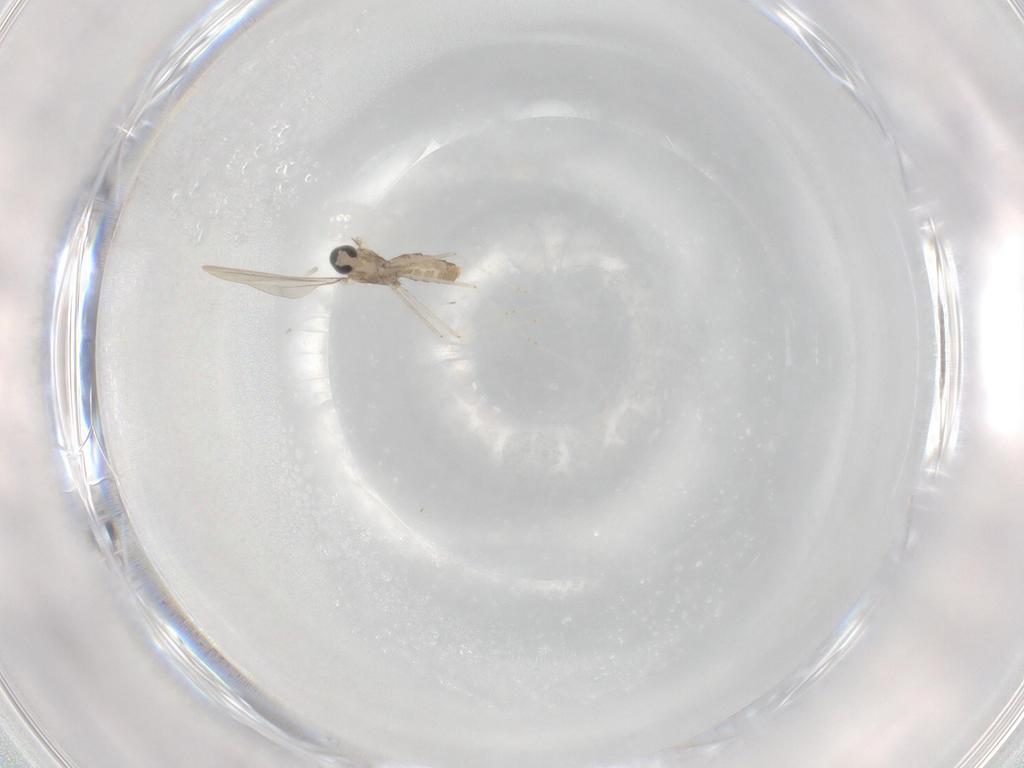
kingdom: Animalia
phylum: Arthropoda
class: Insecta
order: Diptera
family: Cecidomyiidae
